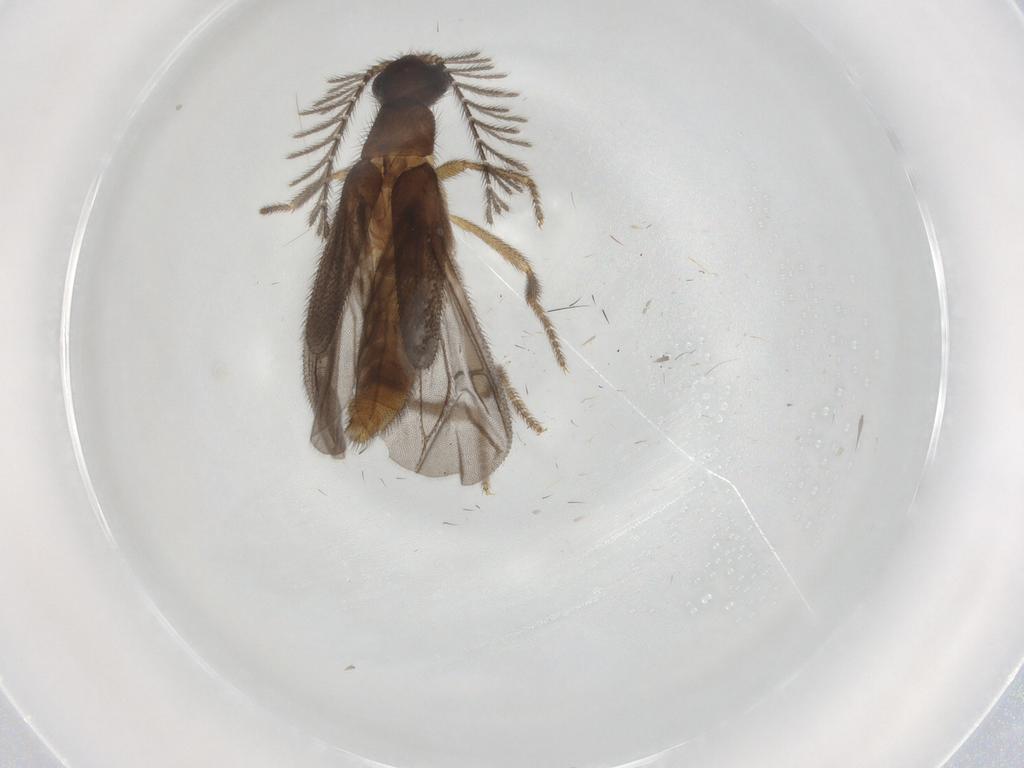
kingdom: Animalia
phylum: Arthropoda
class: Insecta
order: Coleoptera
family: Phengodidae
